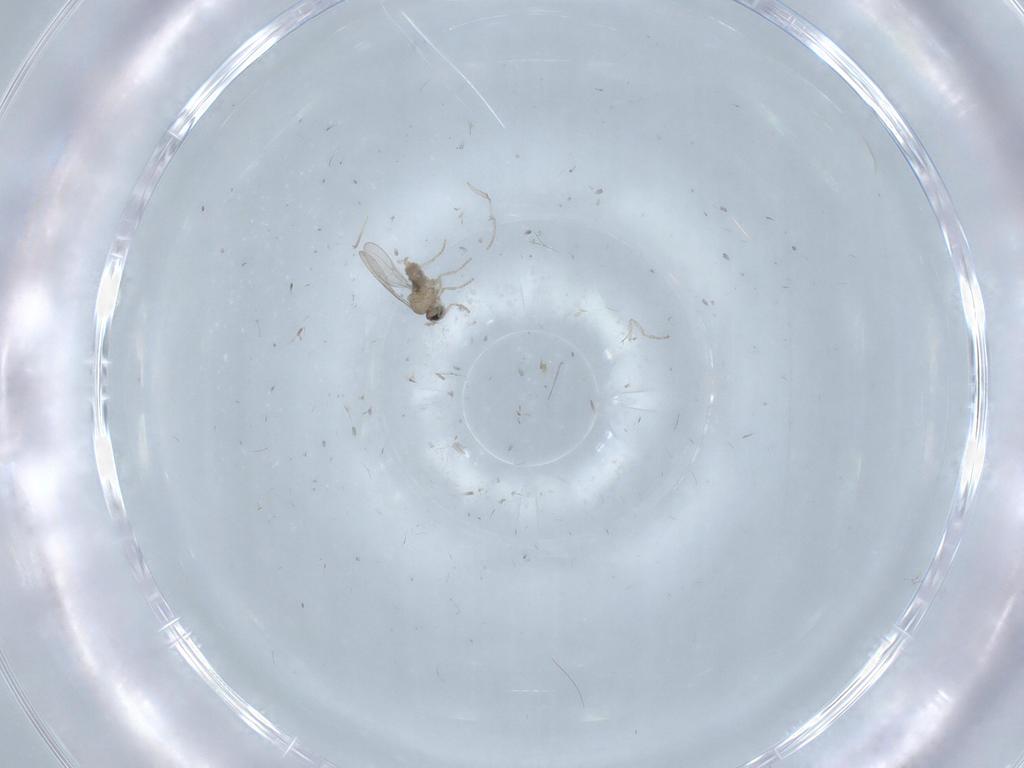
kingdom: Animalia
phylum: Arthropoda
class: Insecta
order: Diptera
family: Cecidomyiidae
